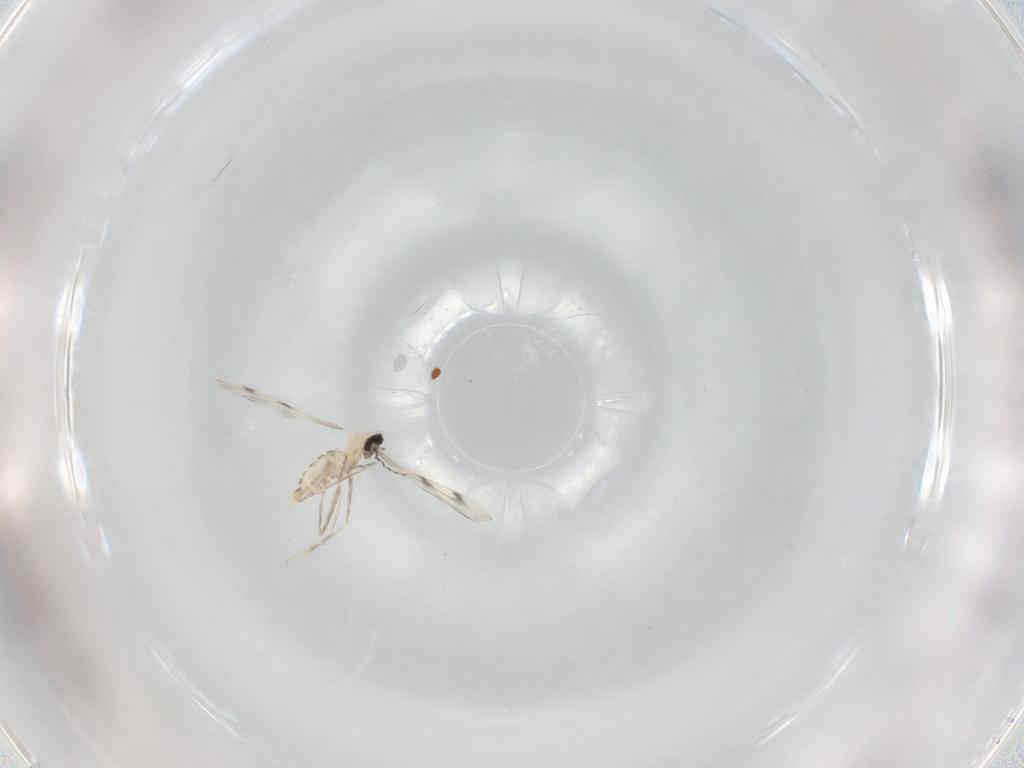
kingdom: Animalia
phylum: Arthropoda
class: Insecta
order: Diptera
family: Cecidomyiidae
